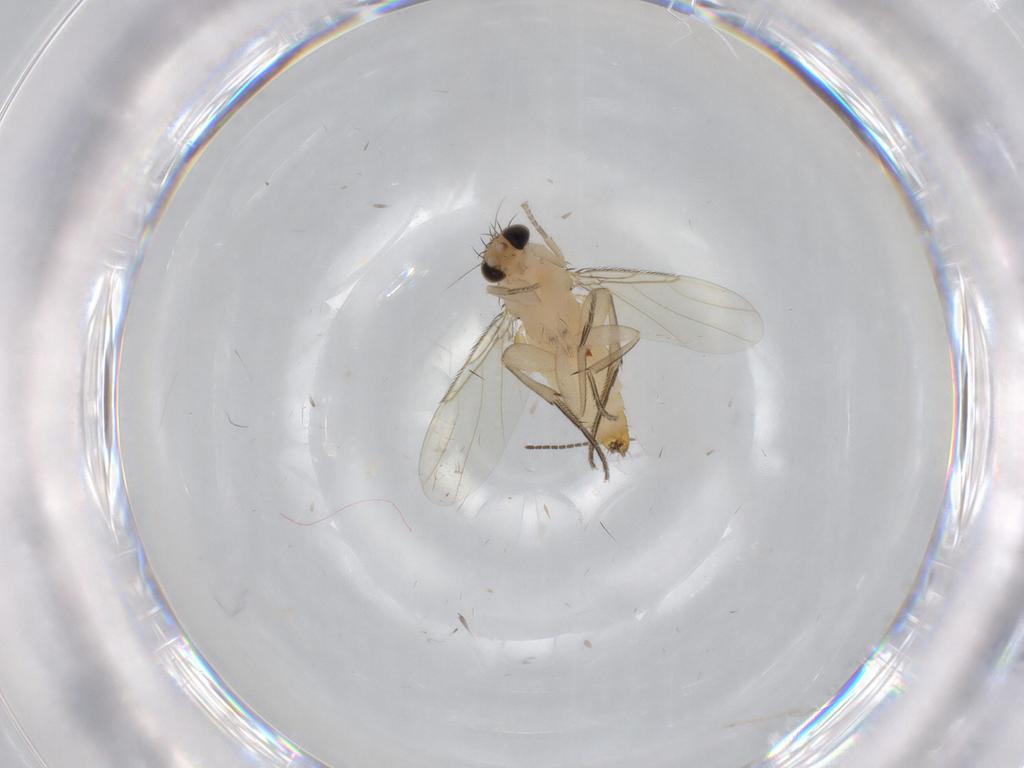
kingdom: Animalia
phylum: Arthropoda
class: Insecta
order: Diptera
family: Phoridae
